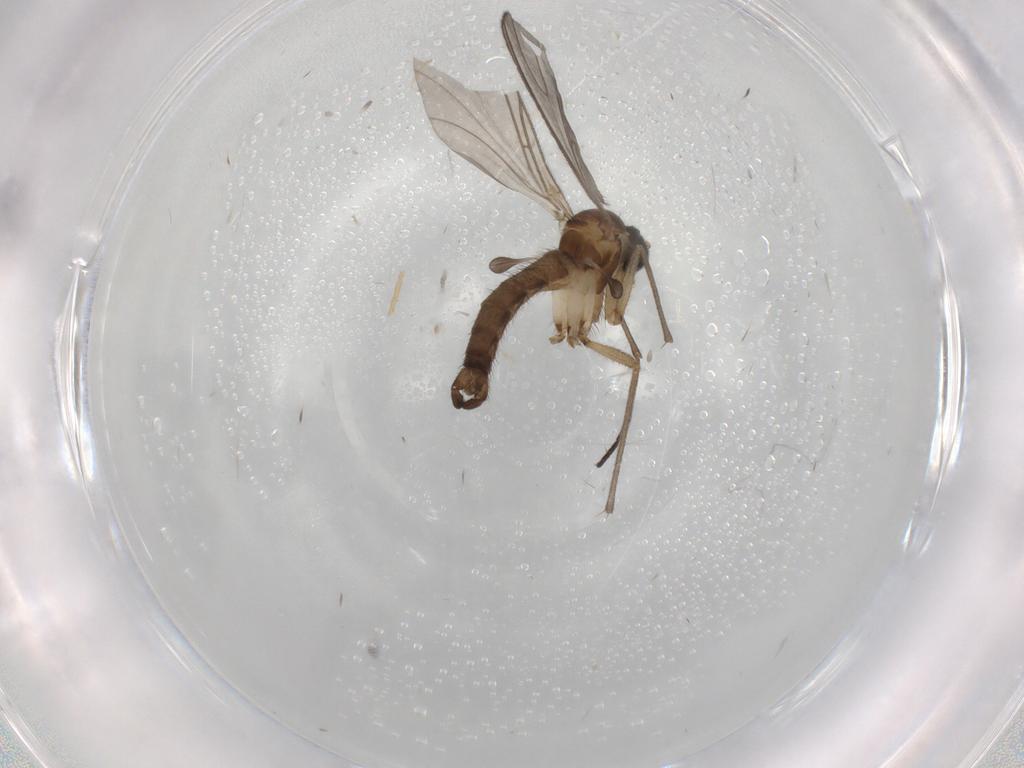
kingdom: Animalia
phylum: Arthropoda
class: Insecta
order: Diptera
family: Sciaridae
